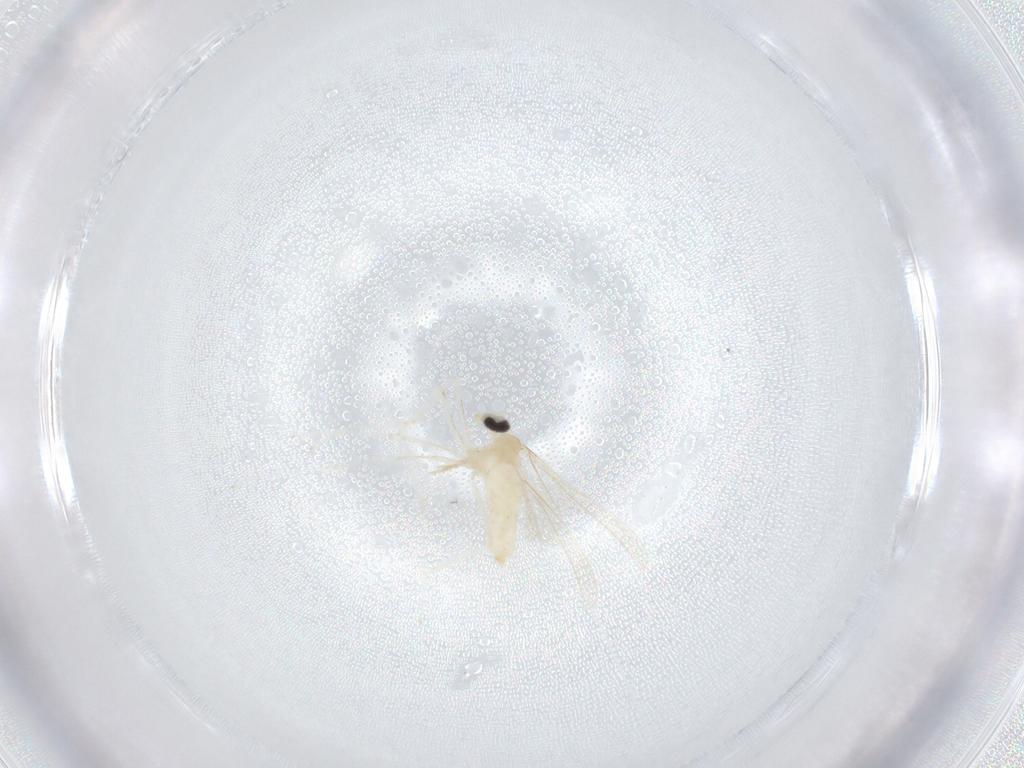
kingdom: Animalia
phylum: Arthropoda
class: Insecta
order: Diptera
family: Cecidomyiidae
